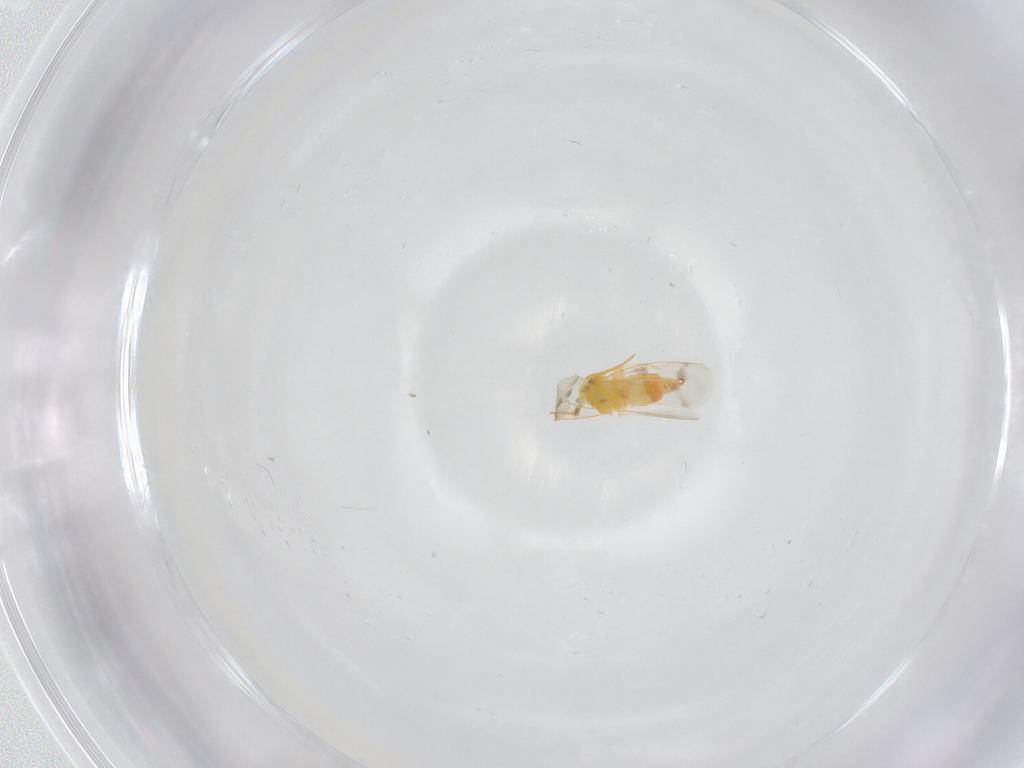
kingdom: Animalia
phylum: Arthropoda
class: Insecta
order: Hemiptera
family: Aleyrodidae
